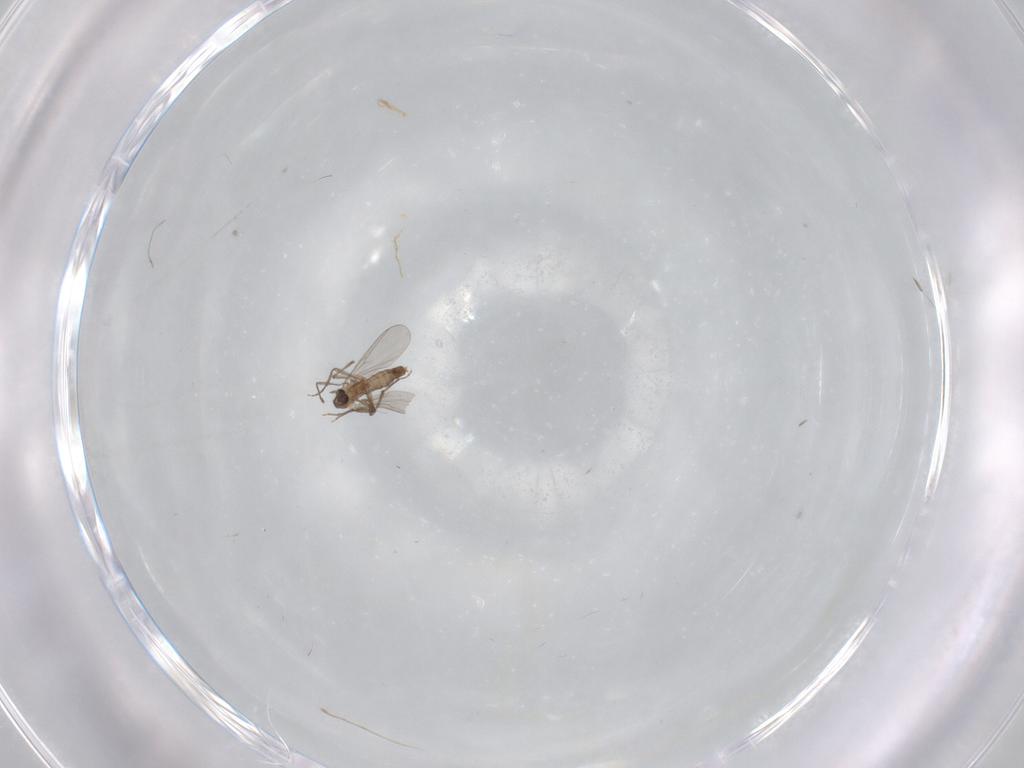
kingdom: Animalia
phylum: Arthropoda
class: Insecta
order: Diptera
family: Chironomidae
